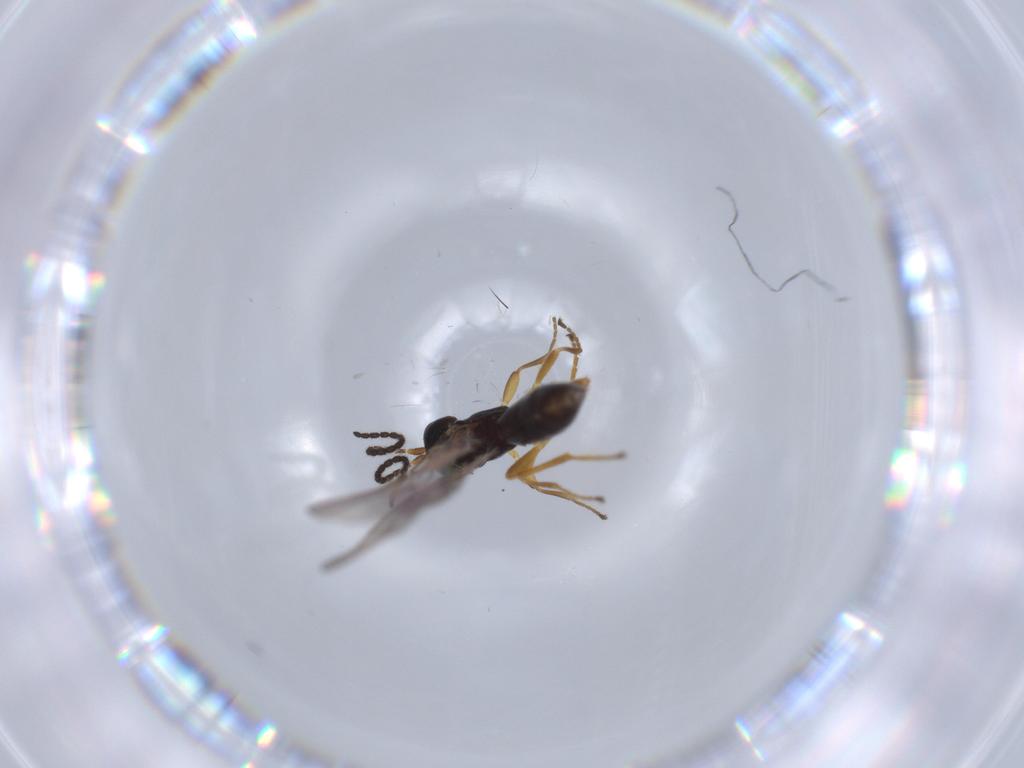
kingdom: Animalia
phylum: Arthropoda
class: Insecta
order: Hymenoptera
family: Braconidae
